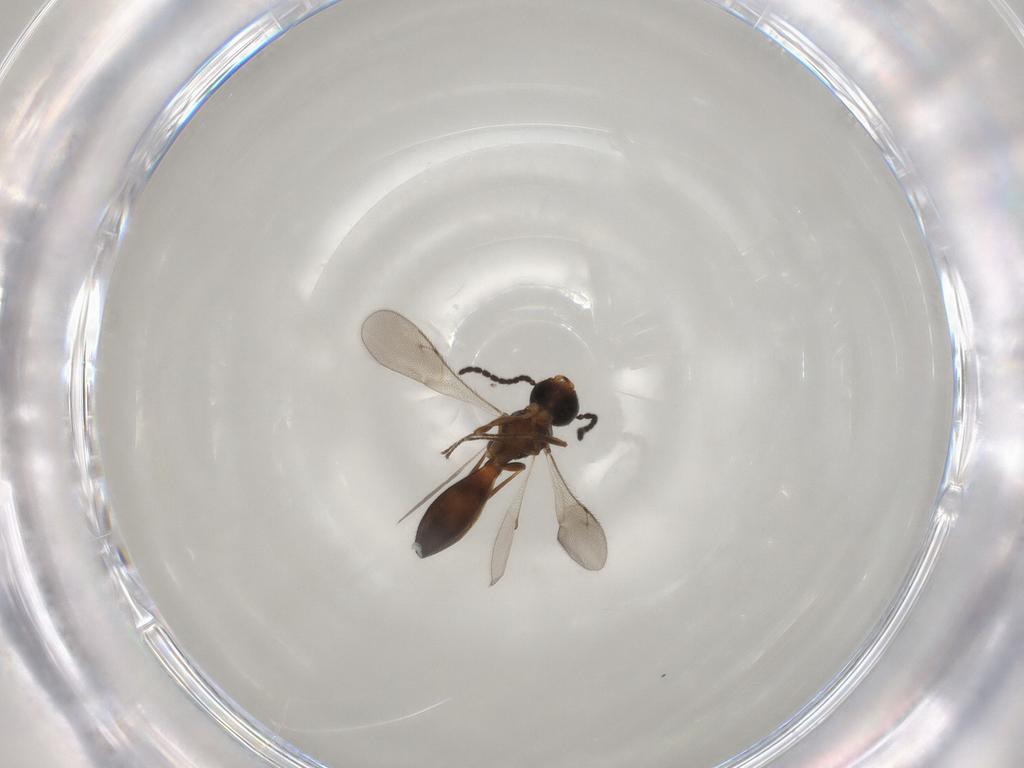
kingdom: Animalia
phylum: Arthropoda
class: Insecta
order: Hymenoptera
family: Scelionidae
